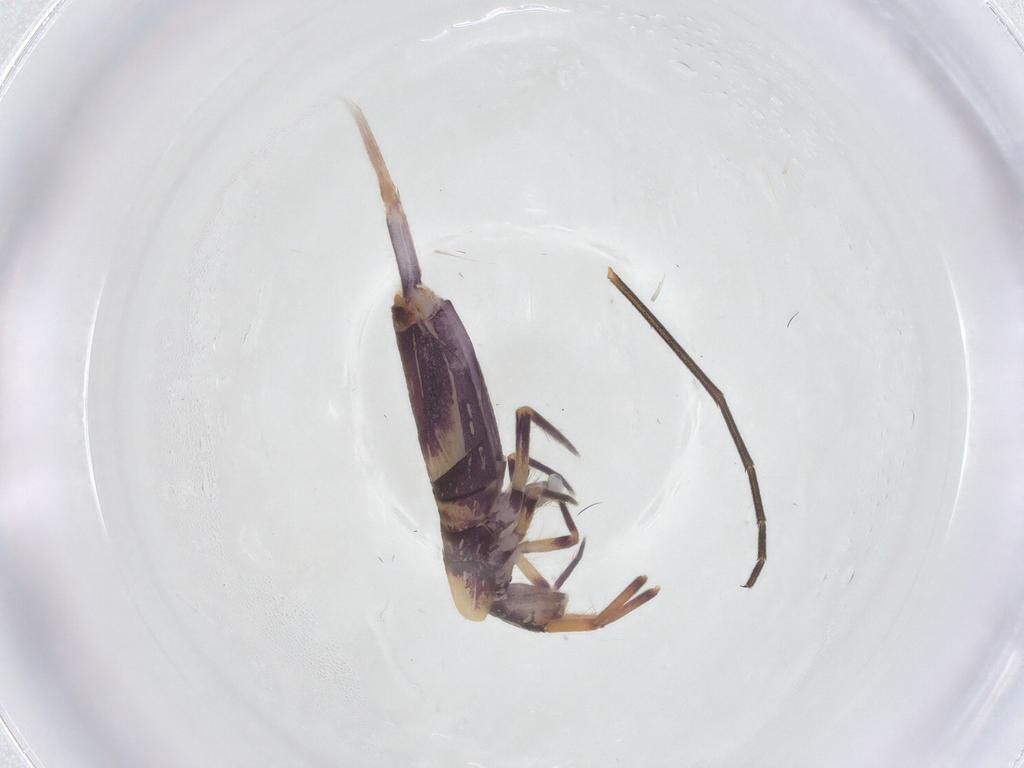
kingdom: Animalia
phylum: Arthropoda
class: Collembola
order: Entomobryomorpha
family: Entomobryidae
